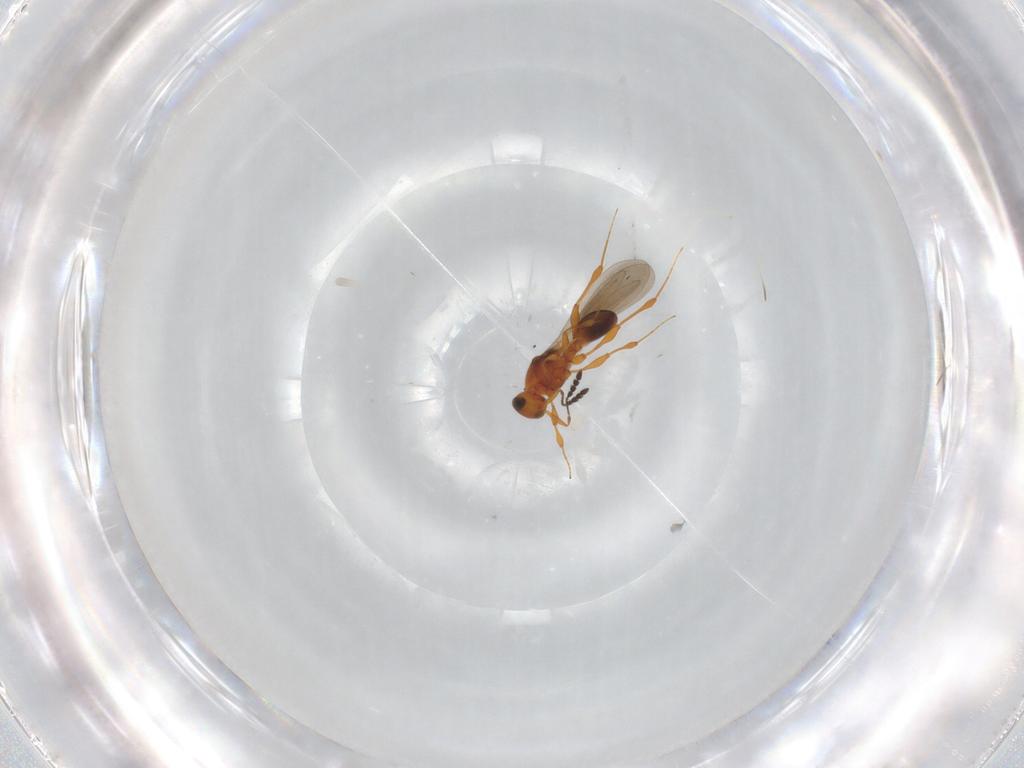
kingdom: Animalia
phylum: Arthropoda
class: Insecta
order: Hymenoptera
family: Platygastridae
